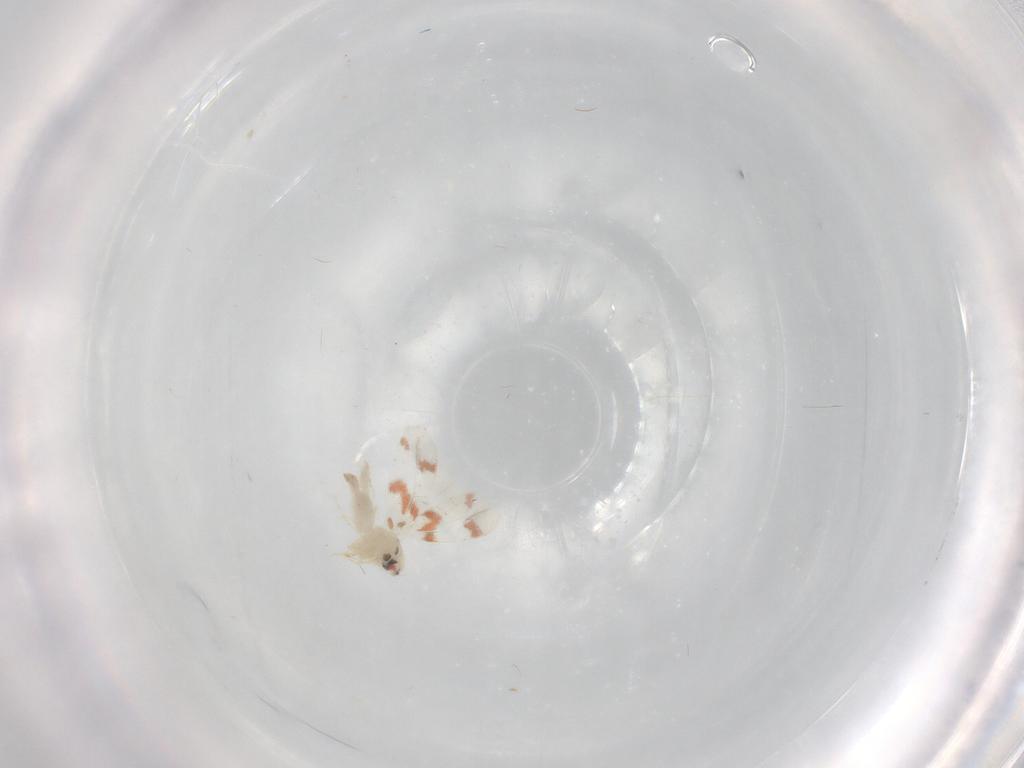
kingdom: Animalia
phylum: Arthropoda
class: Insecta
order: Hemiptera
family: Aleyrodidae
